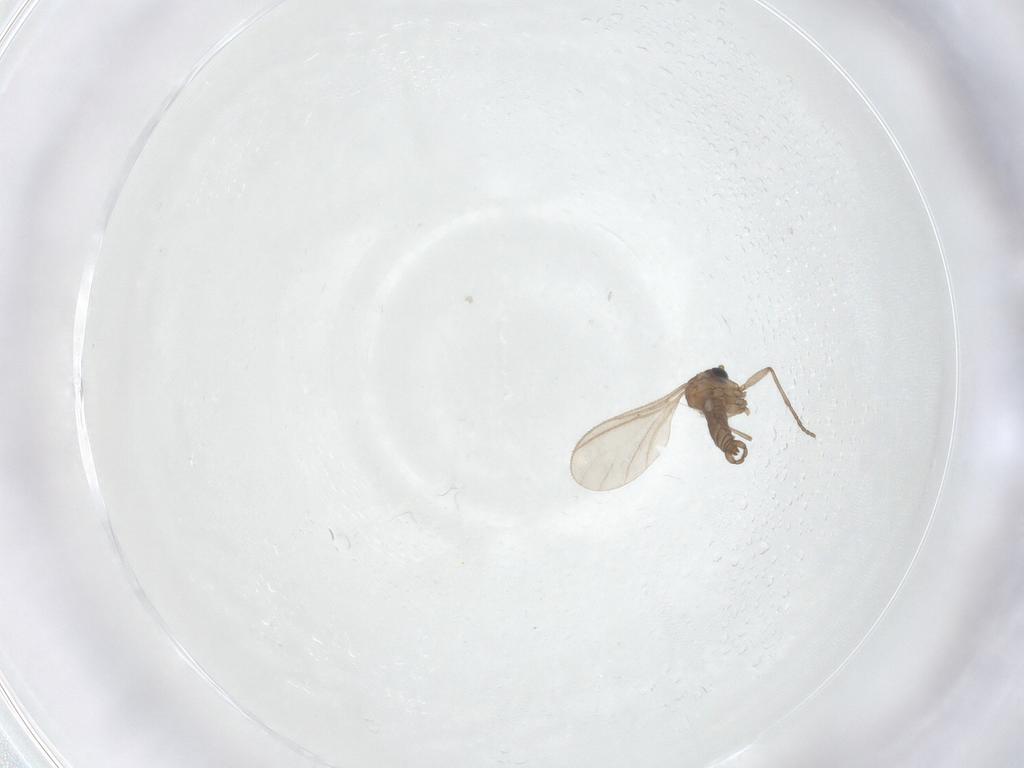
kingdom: Animalia
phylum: Arthropoda
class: Insecta
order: Diptera
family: Sciaridae
